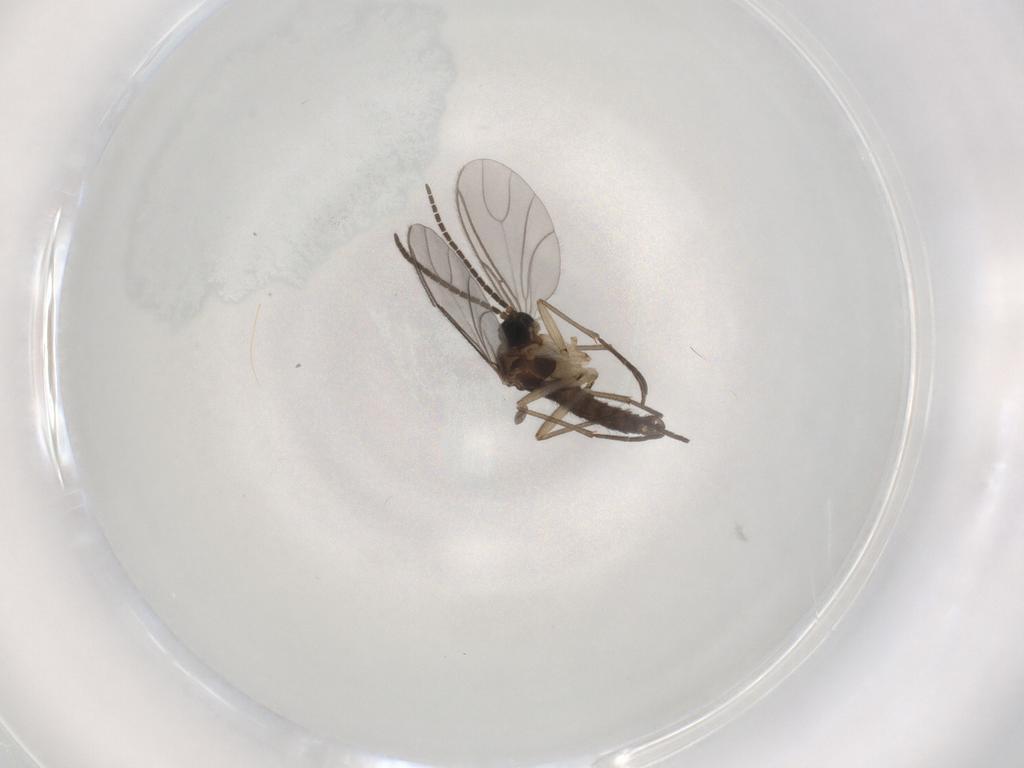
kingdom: Animalia
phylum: Arthropoda
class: Insecta
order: Diptera
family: Sciaridae
